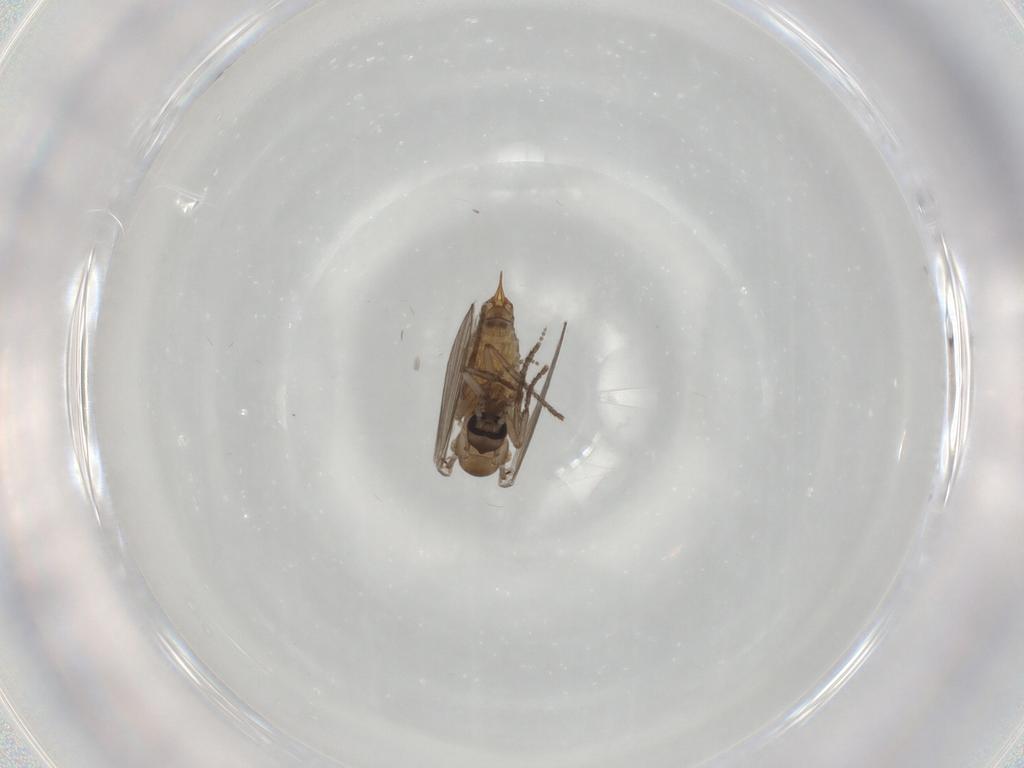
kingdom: Animalia
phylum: Arthropoda
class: Insecta
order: Diptera
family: Psychodidae
